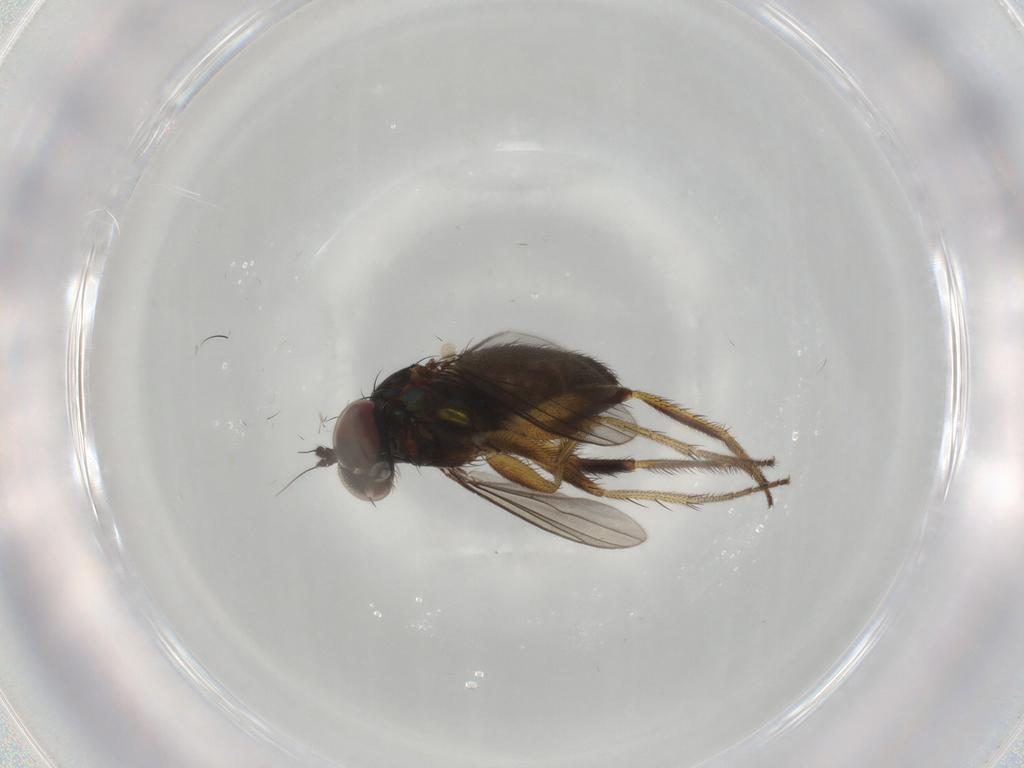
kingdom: Animalia
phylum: Arthropoda
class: Insecta
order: Diptera
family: Dolichopodidae
